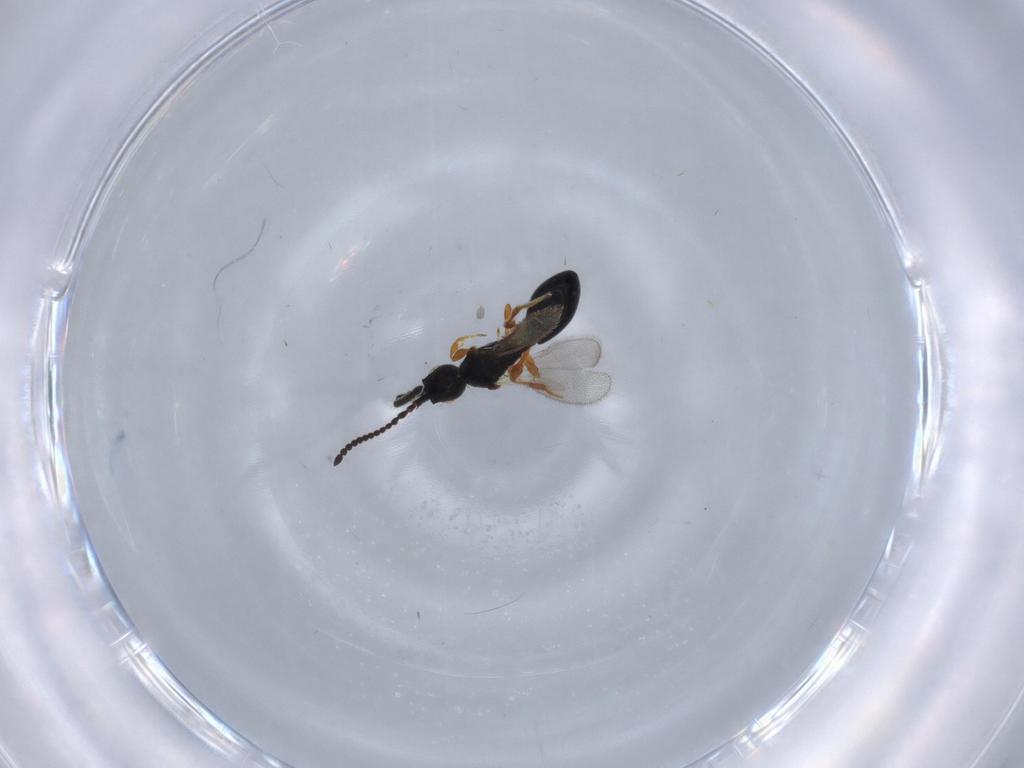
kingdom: Animalia
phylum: Arthropoda
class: Insecta
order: Hymenoptera
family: Diapriidae
